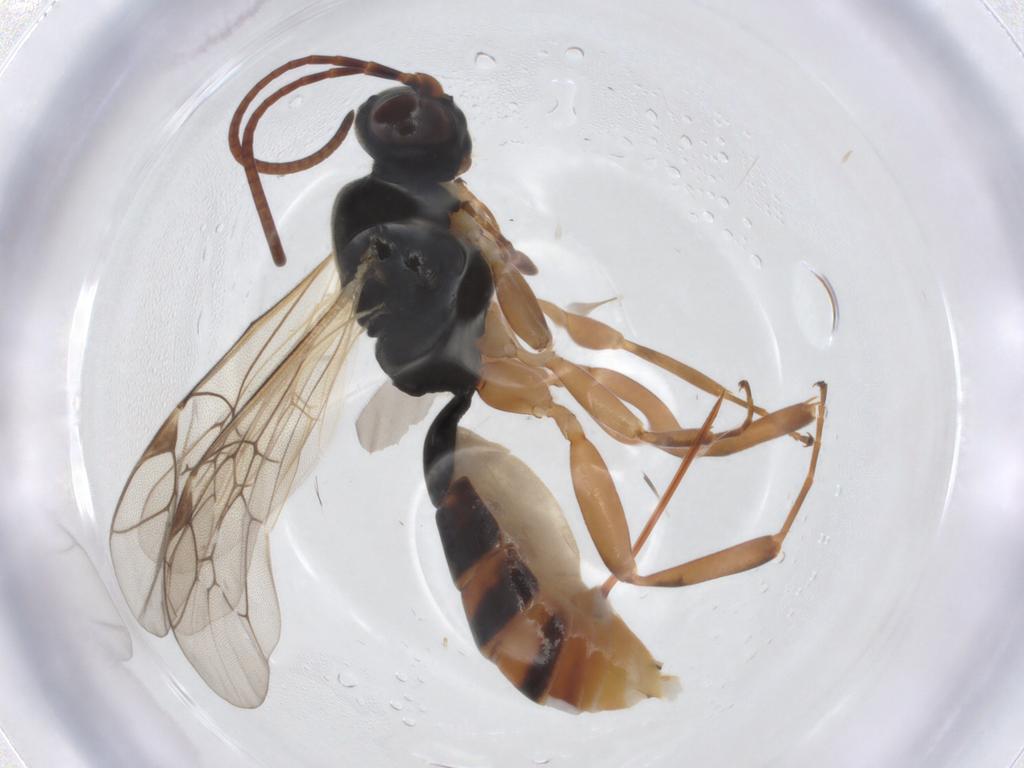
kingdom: Animalia
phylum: Arthropoda
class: Insecta
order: Hymenoptera
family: Ichneumonidae
